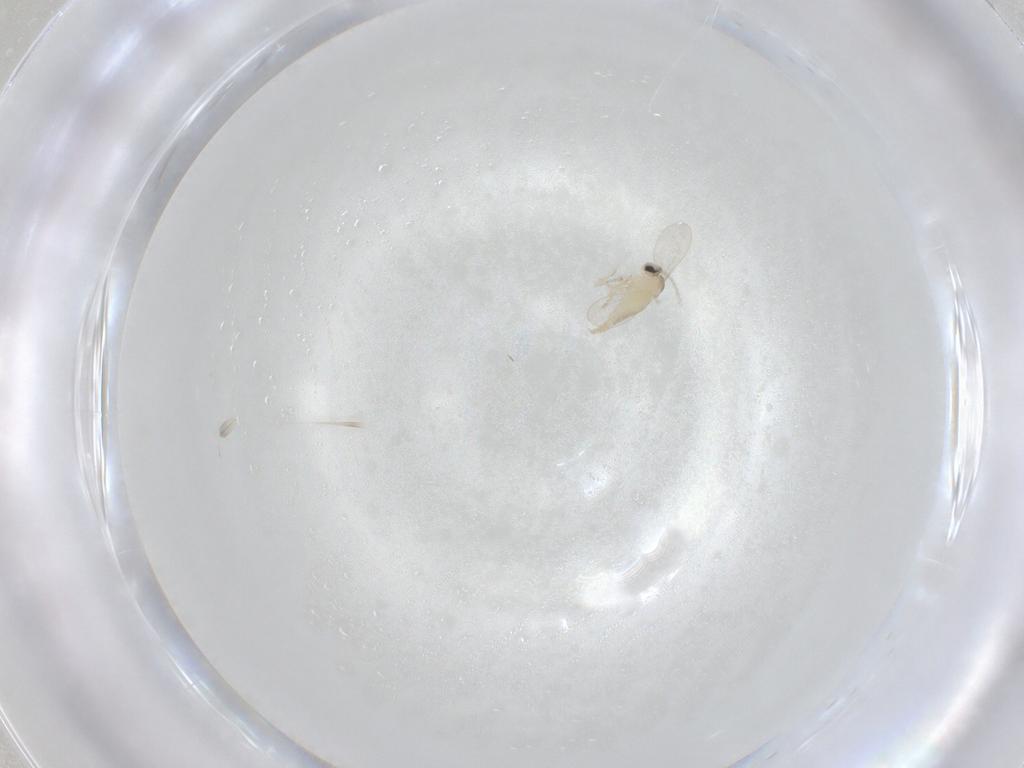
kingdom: Animalia
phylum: Arthropoda
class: Insecta
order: Diptera
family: Cecidomyiidae
